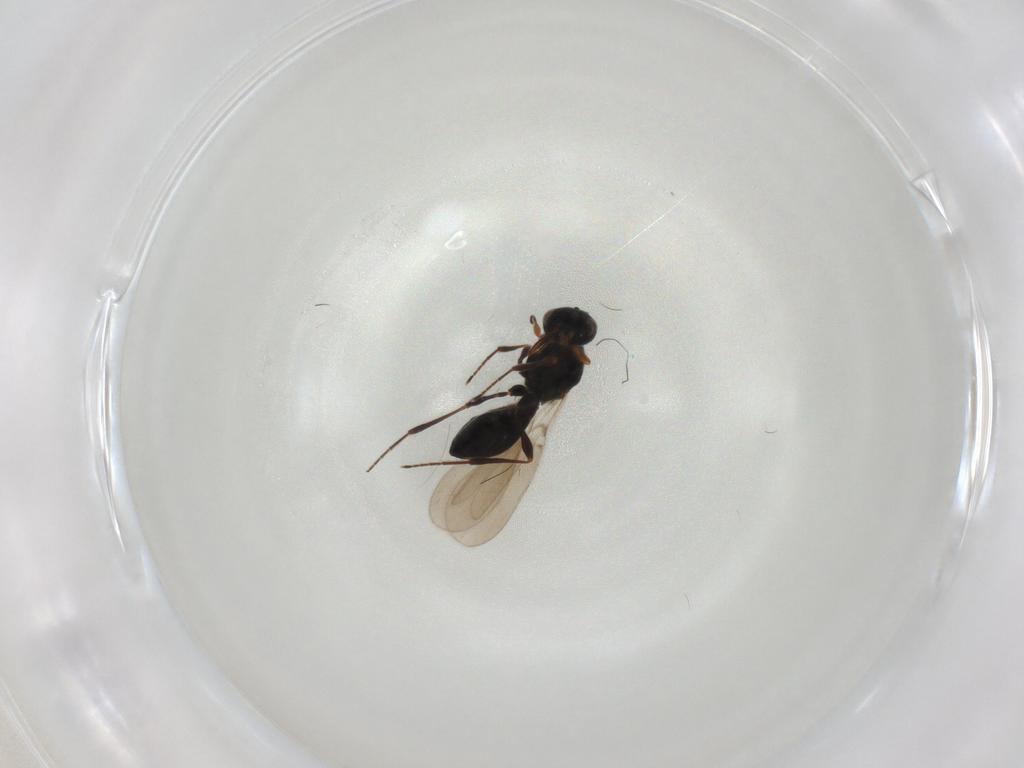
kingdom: Animalia
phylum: Arthropoda
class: Insecta
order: Hymenoptera
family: Platygastridae
